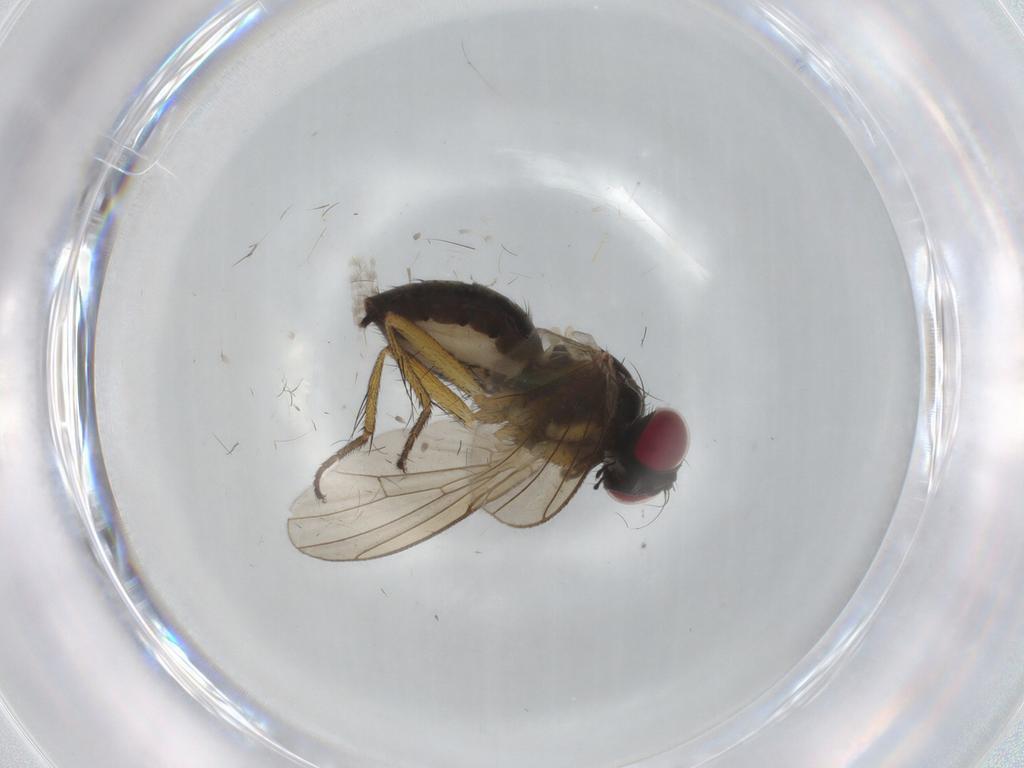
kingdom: Animalia
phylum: Arthropoda
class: Insecta
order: Diptera
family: Muscidae
